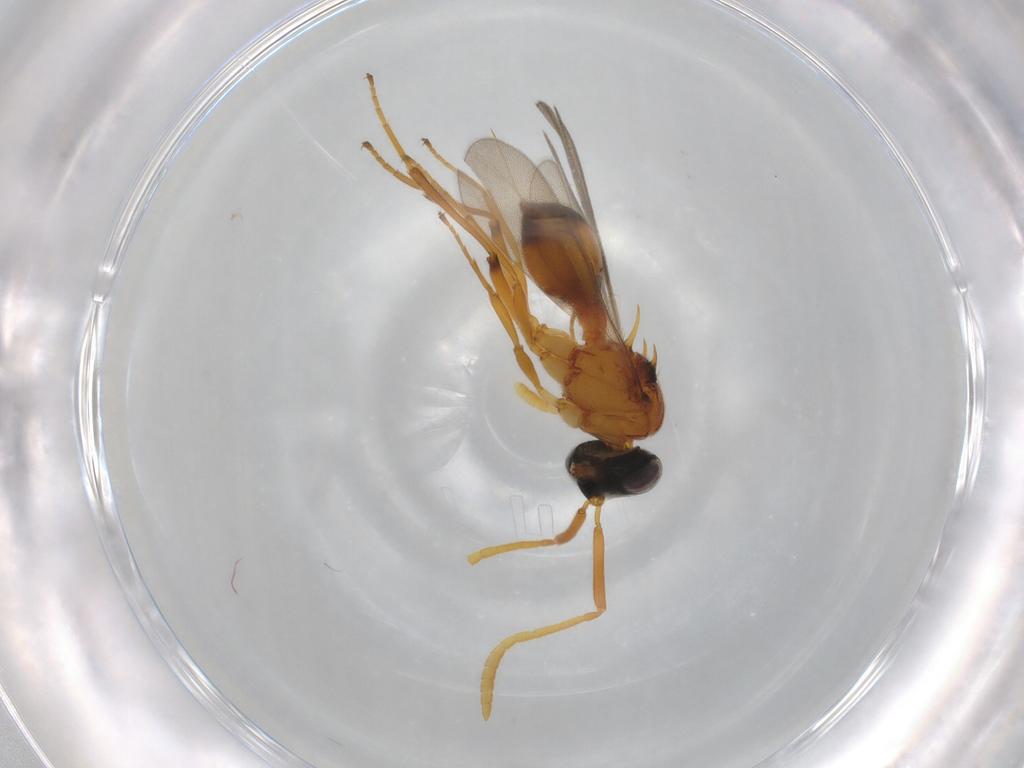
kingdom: Animalia
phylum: Arthropoda
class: Insecta
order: Hymenoptera
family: Scelionidae
